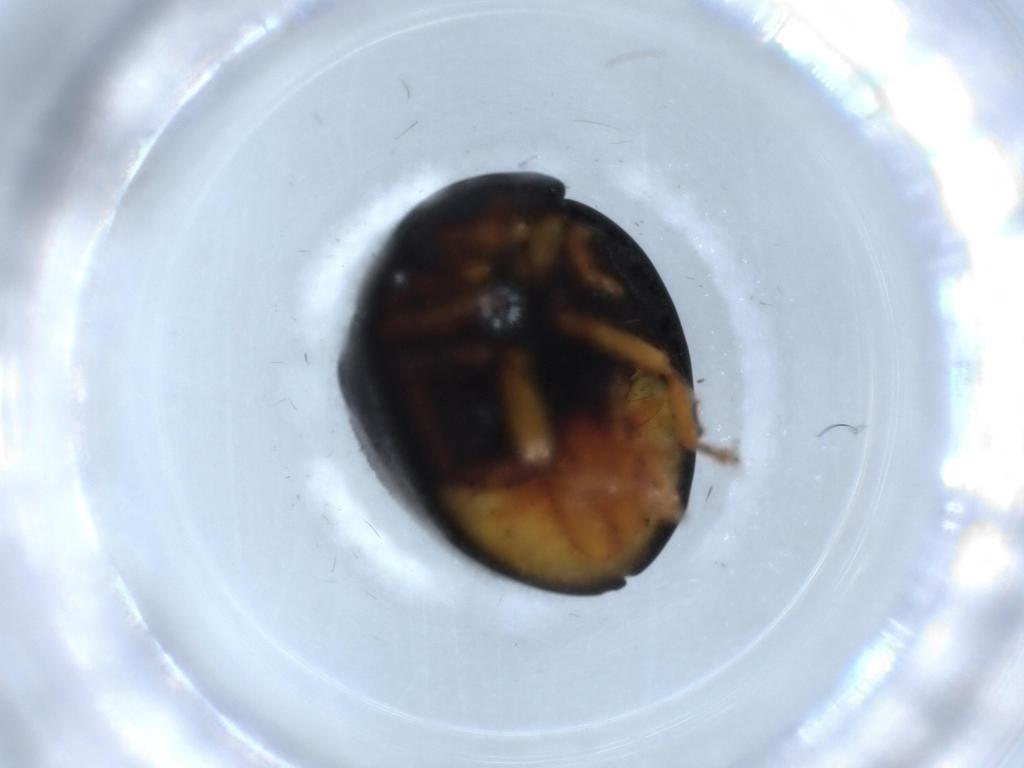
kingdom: Animalia
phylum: Arthropoda
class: Insecta
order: Coleoptera
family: Coccinellidae
